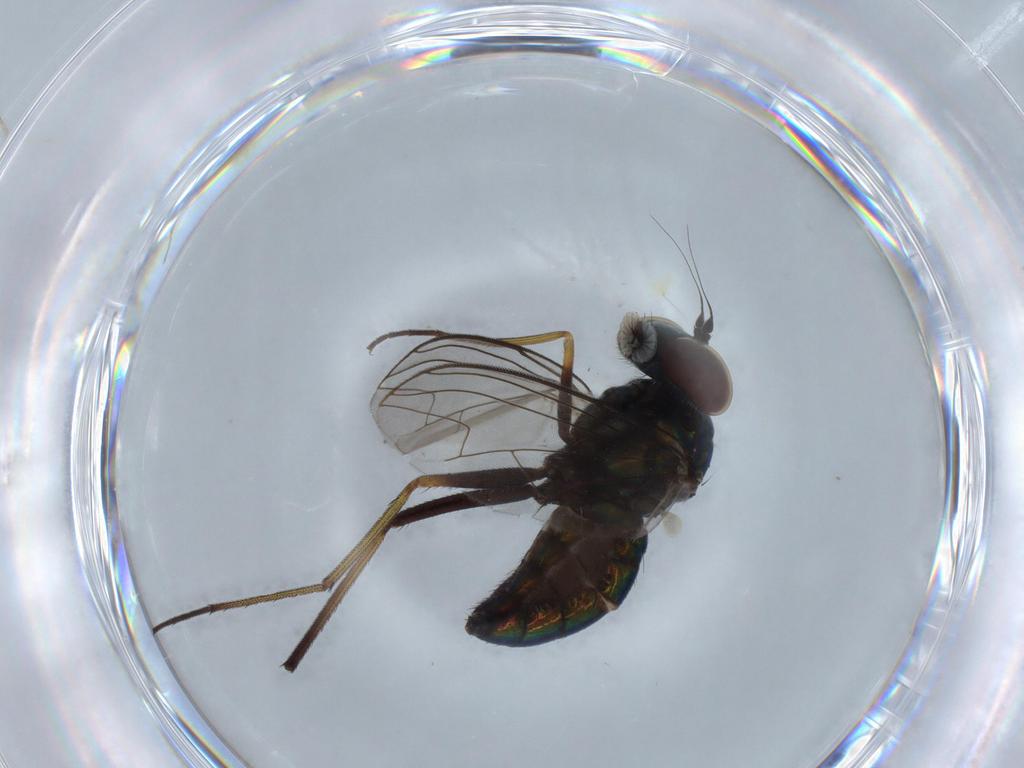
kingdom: Animalia
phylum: Arthropoda
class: Insecta
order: Diptera
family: Dolichopodidae
